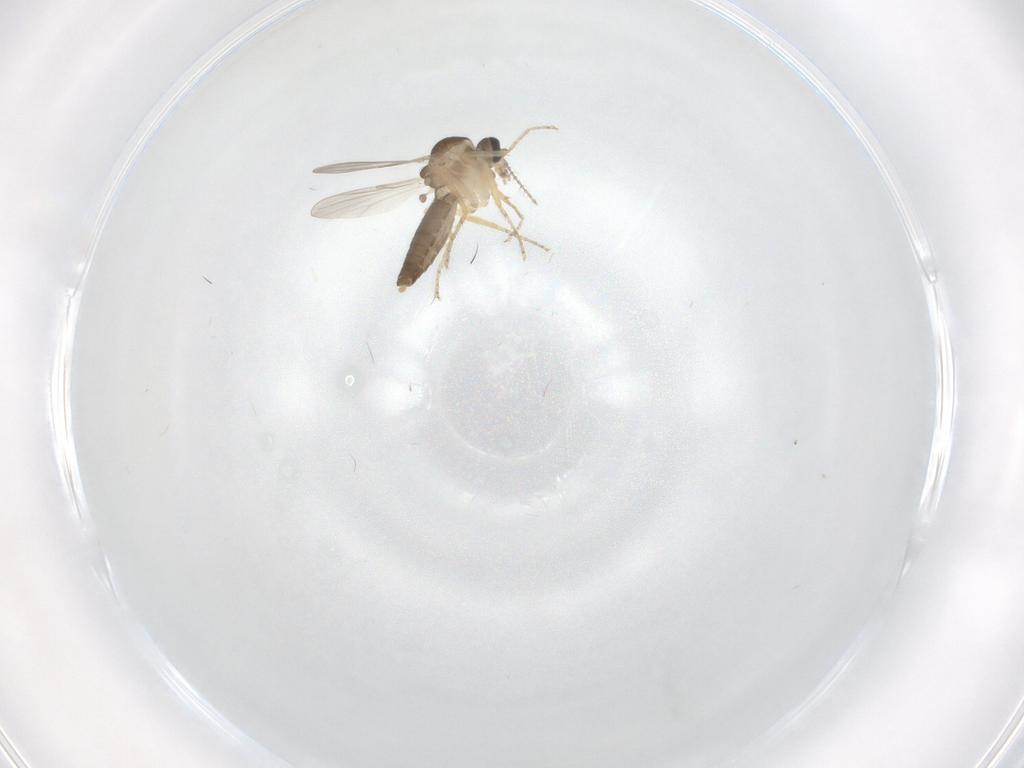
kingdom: Animalia
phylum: Arthropoda
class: Insecta
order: Diptera
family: Ceratopogonidae
